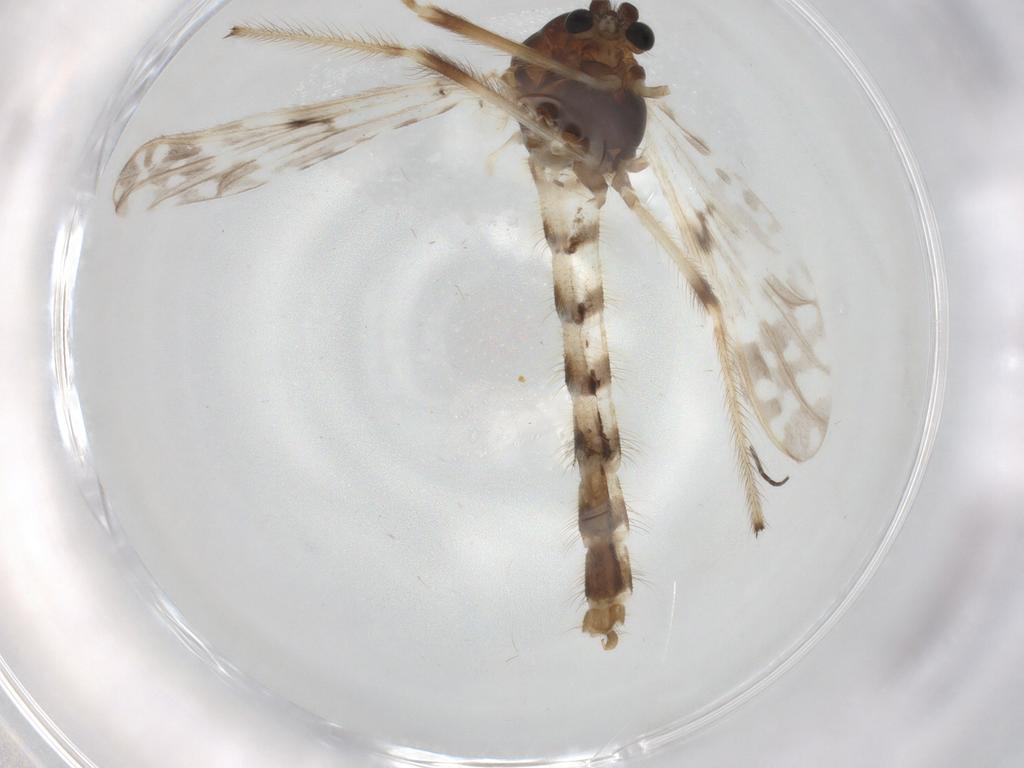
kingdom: Animalia
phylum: Arthropoda
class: Insecta
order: Diptera
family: Chironomidae
